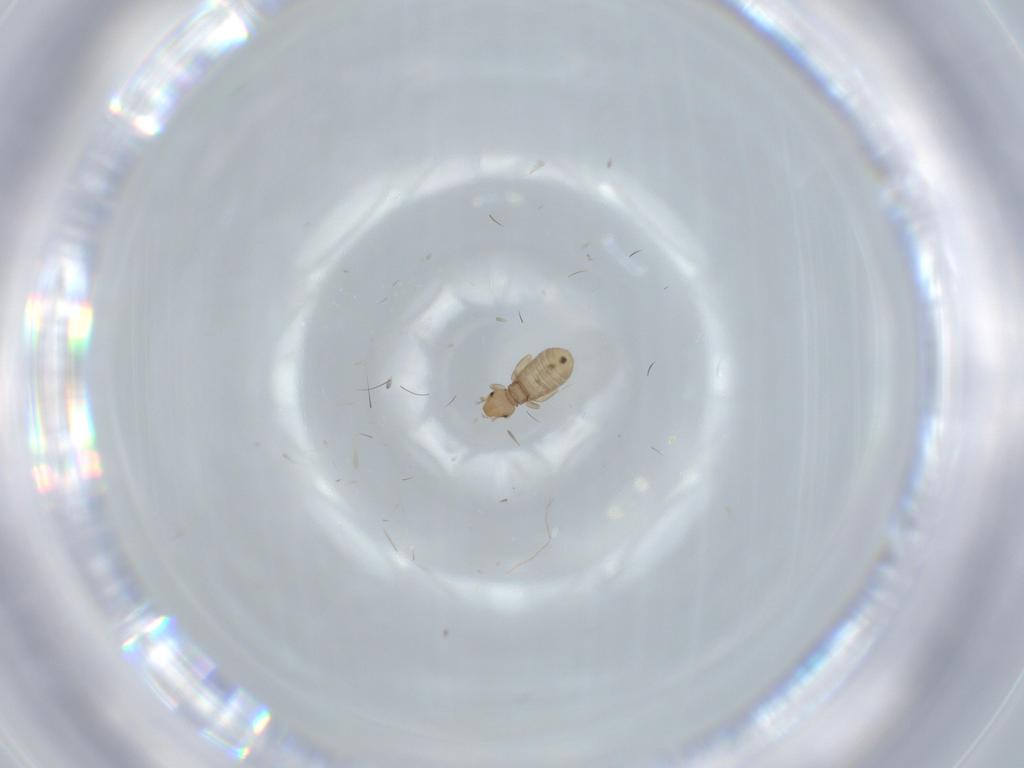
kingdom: Animalia
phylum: Arthropoda
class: Insecta
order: Psocodea
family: Liposcelididae
